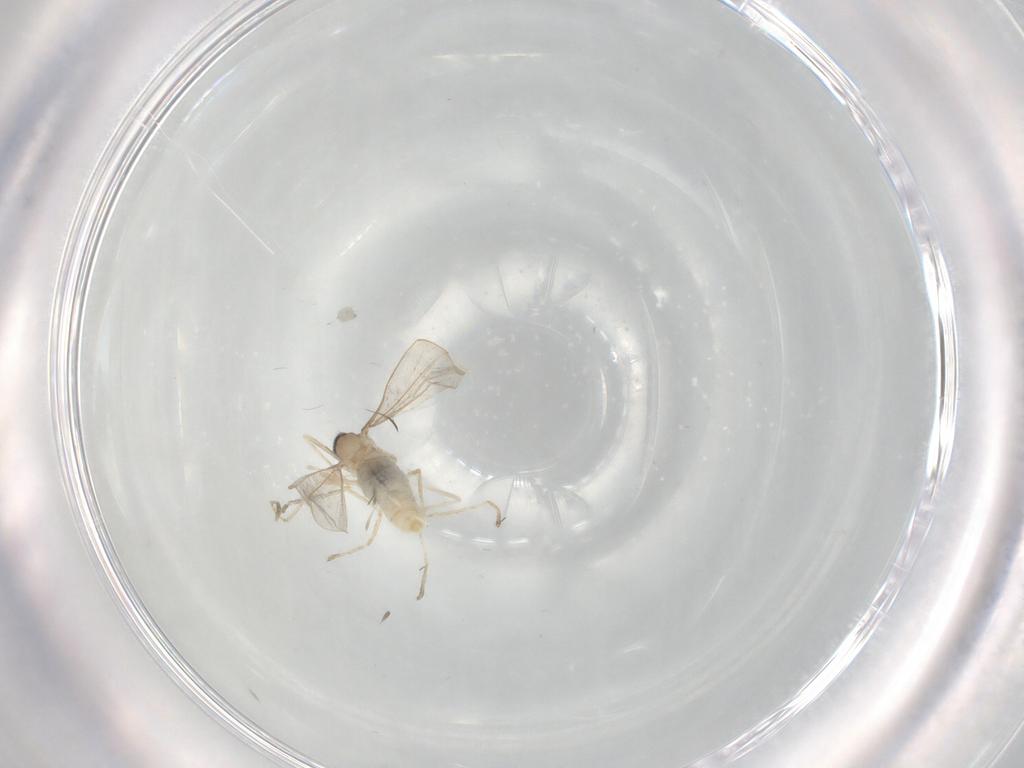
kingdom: Animalia
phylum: Arthropoda
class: Insecta
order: Diptera
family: Cecidomyiidae
